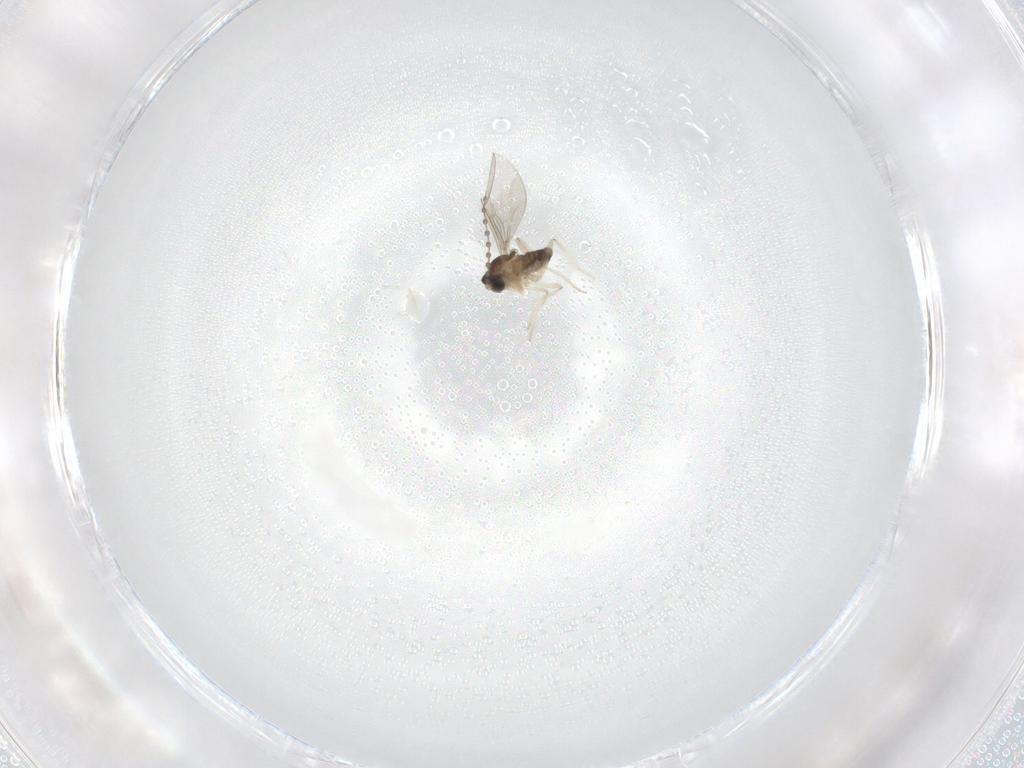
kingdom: Animalia
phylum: Arthropoda
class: Insecta
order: Diptera
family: Cecidomyiidae
